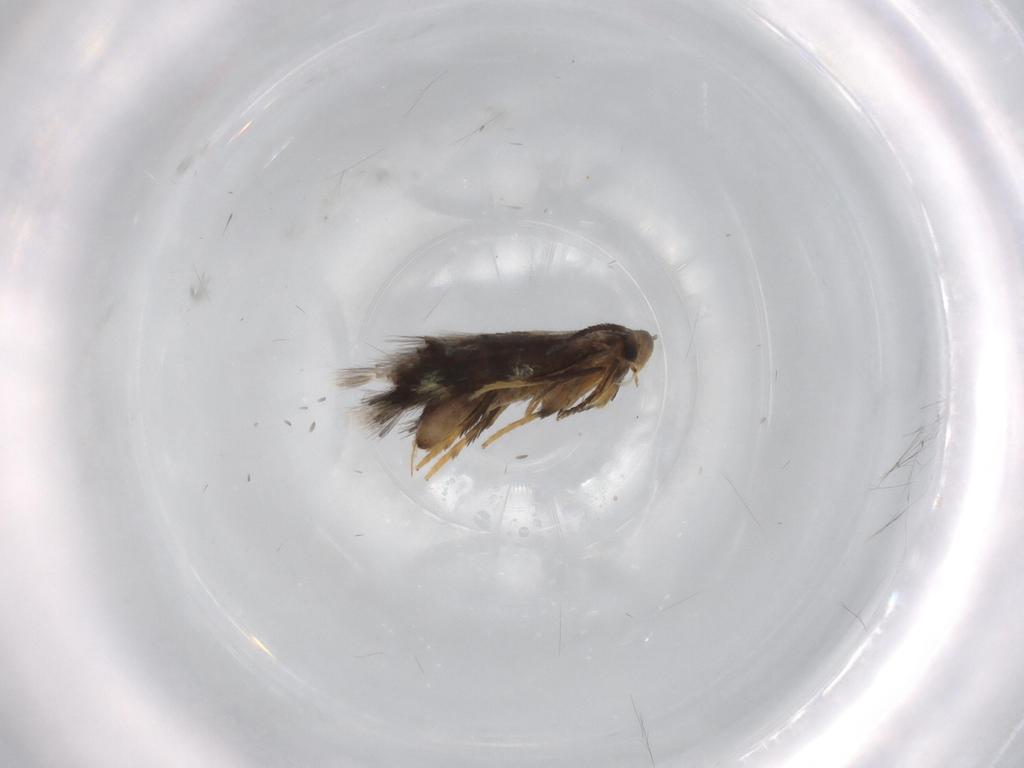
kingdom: Animalia
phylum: Arthropoda
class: Insecta
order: Lepidoptera
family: Heliozelidae
